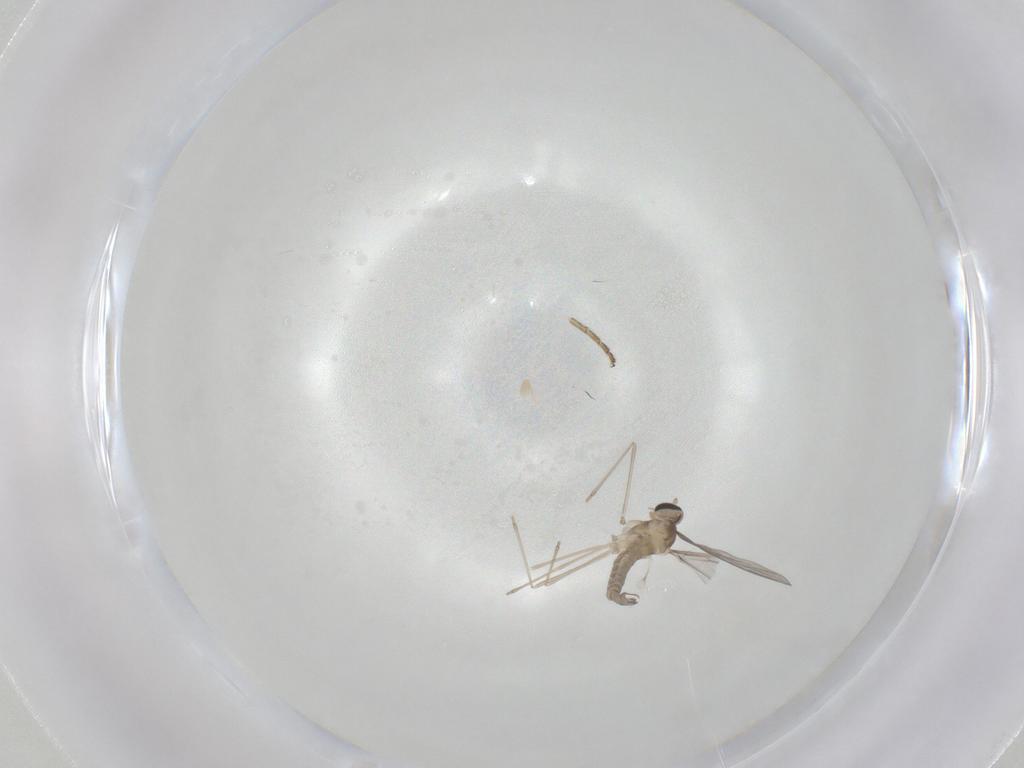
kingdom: Animalia
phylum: Arthropoda
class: Insecta
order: Diptera
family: Cecidomyiidae
